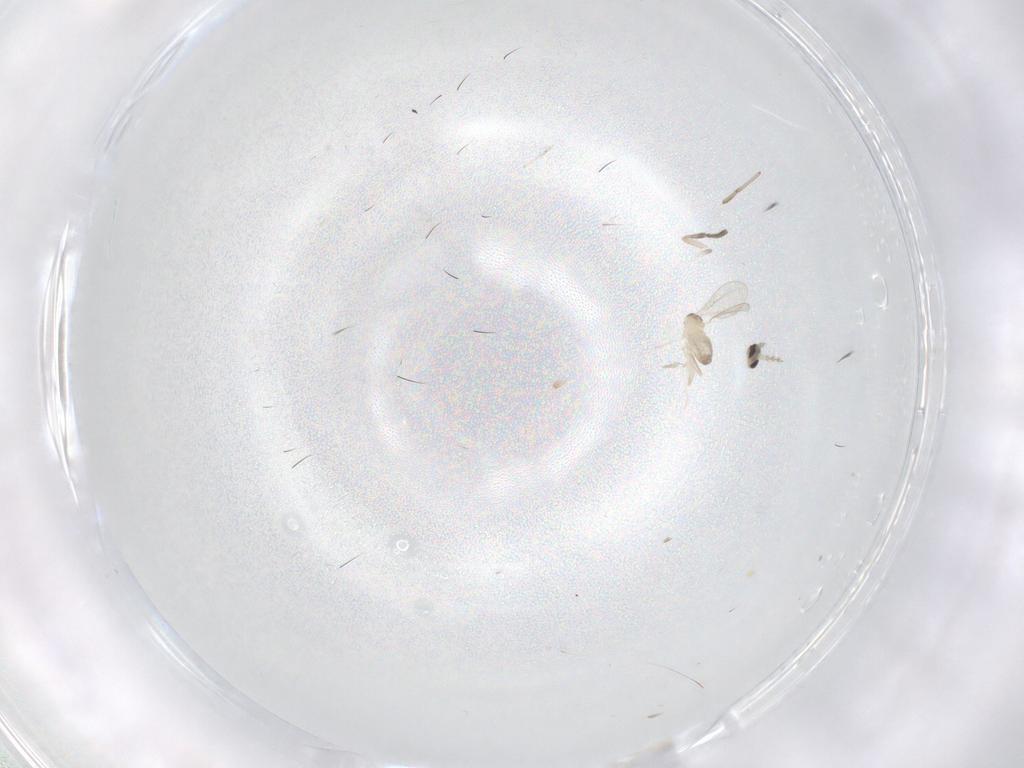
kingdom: Animalia
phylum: Arthropoda
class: Insecta
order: Diptera
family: Cecidomyiidae
